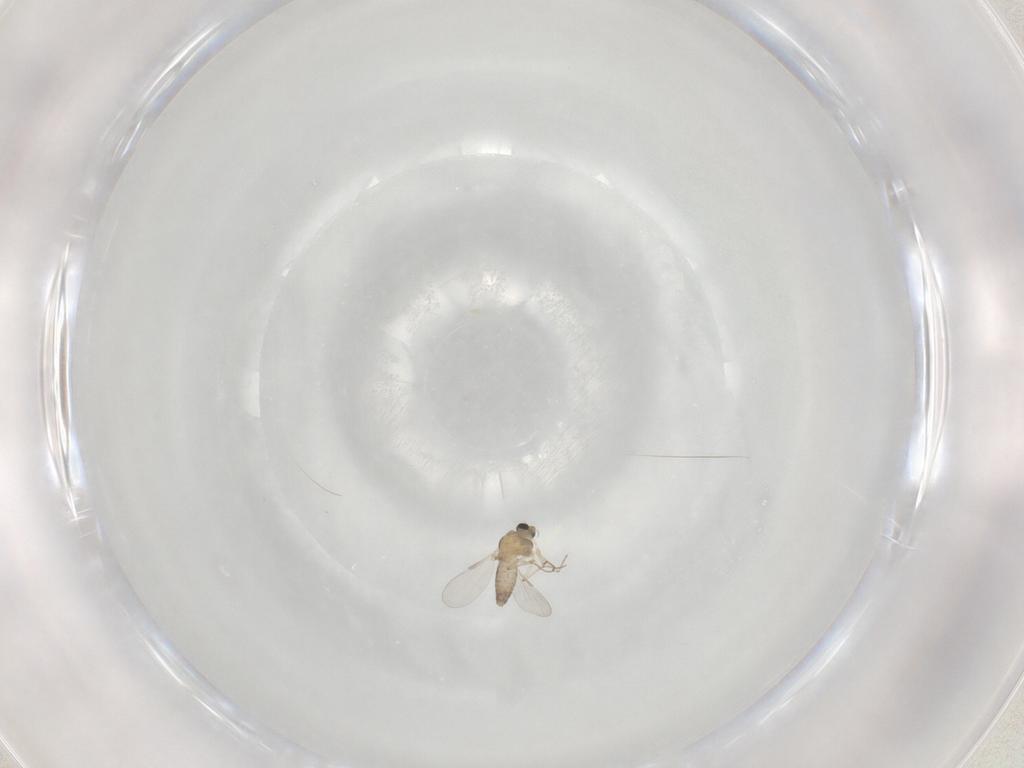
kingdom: Animalia
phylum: Arthropoda
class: Insecta
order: Diptera
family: Chironomidae
